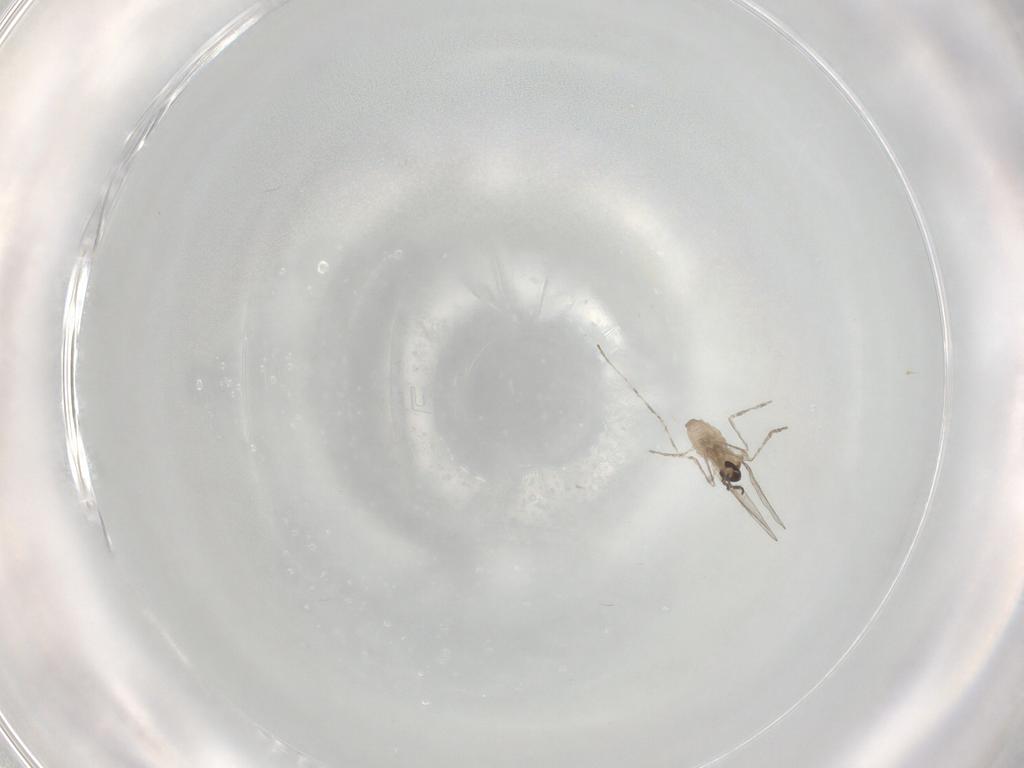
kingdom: Animalia
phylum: Arthropoda
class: Insecta
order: Diptera
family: Cecidomyiidae
